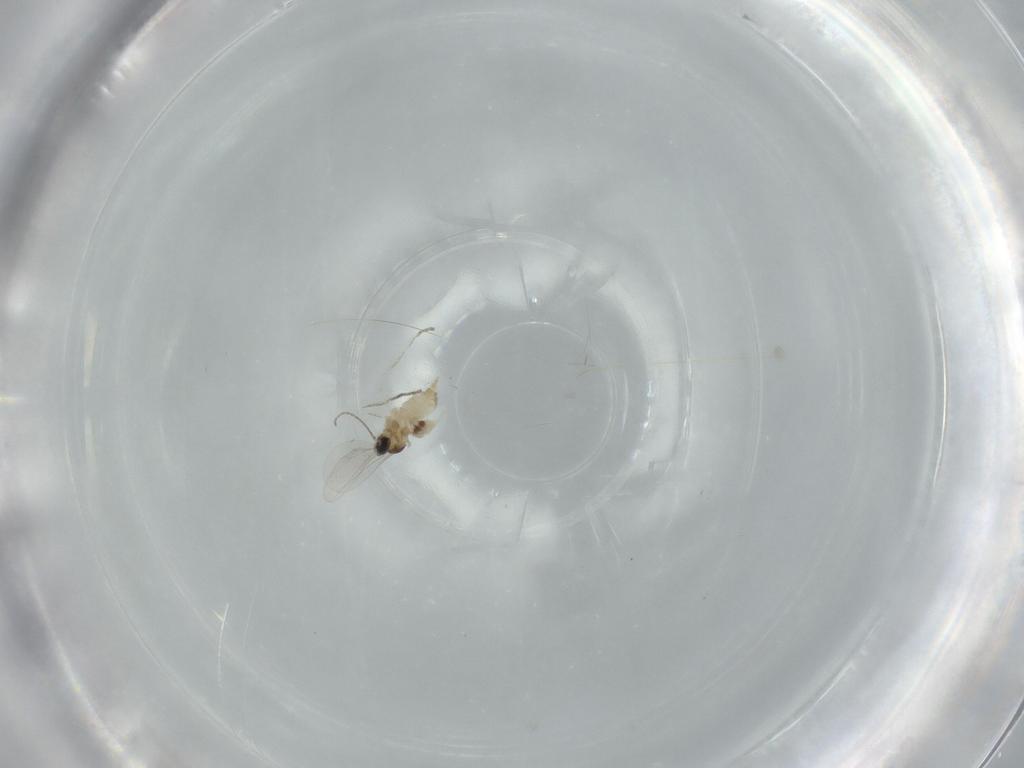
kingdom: Animalia
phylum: Arthropoda
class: Insecta
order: Diptera
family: Cecidomyiidae
